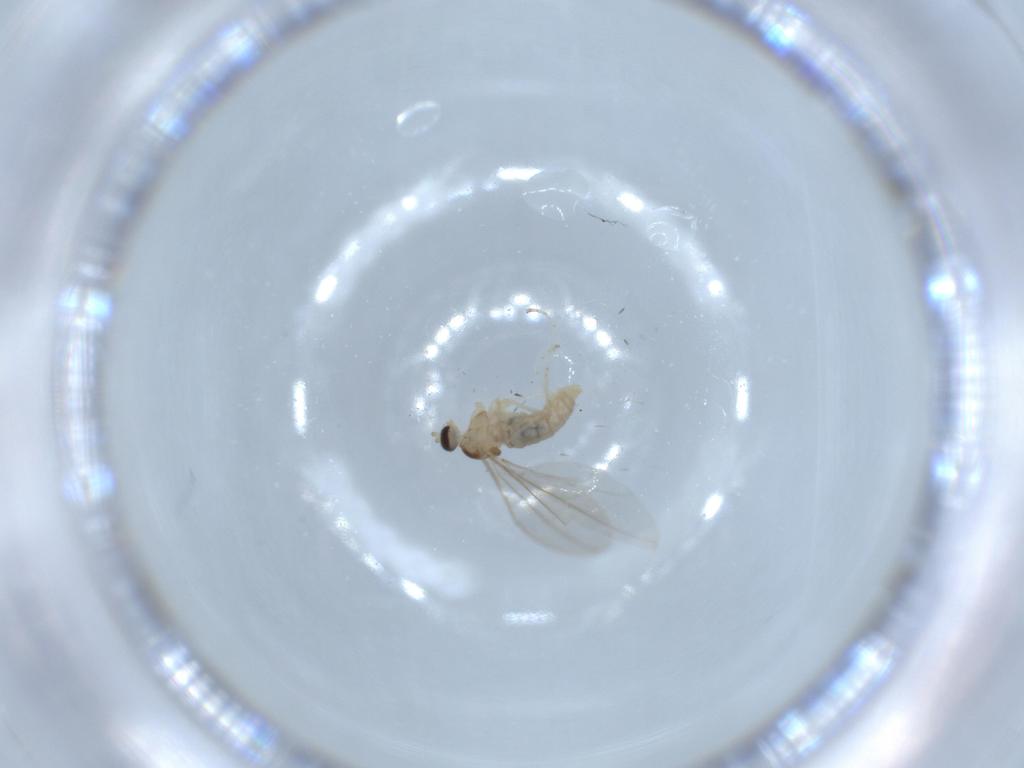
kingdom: Animalia
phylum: Arthropoda
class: Insecta
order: Diptera
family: Cecidomyiidae
